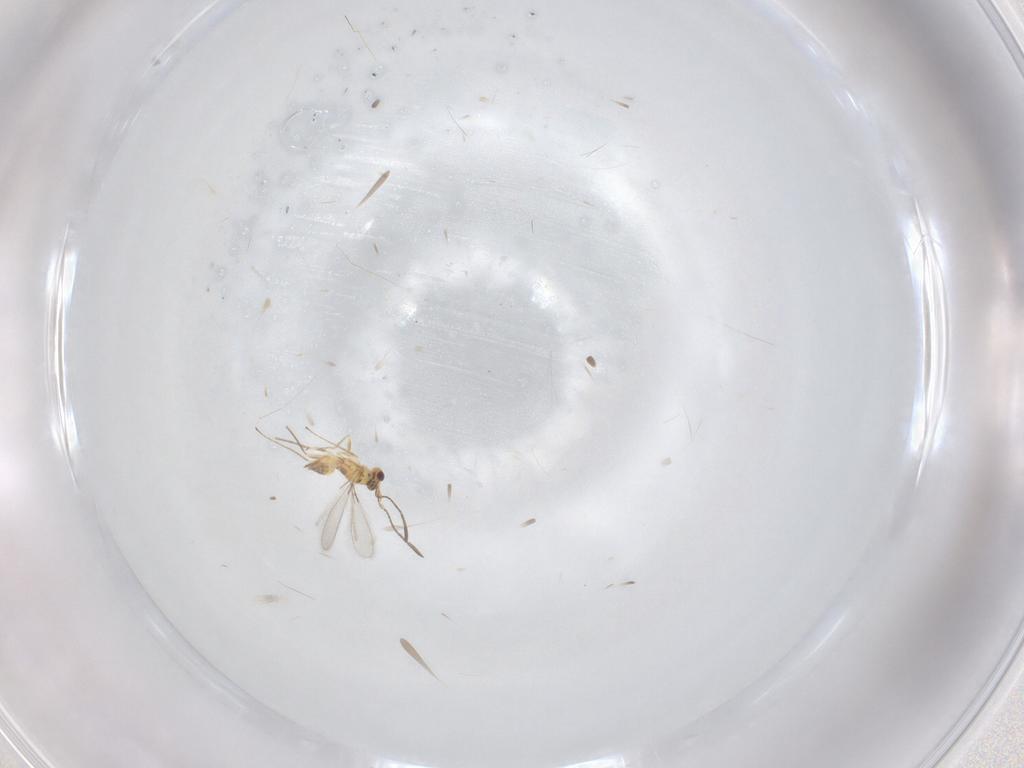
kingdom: Animalia
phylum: Arthropoda
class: Insecta
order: Hymenoptera
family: Mymaridae
